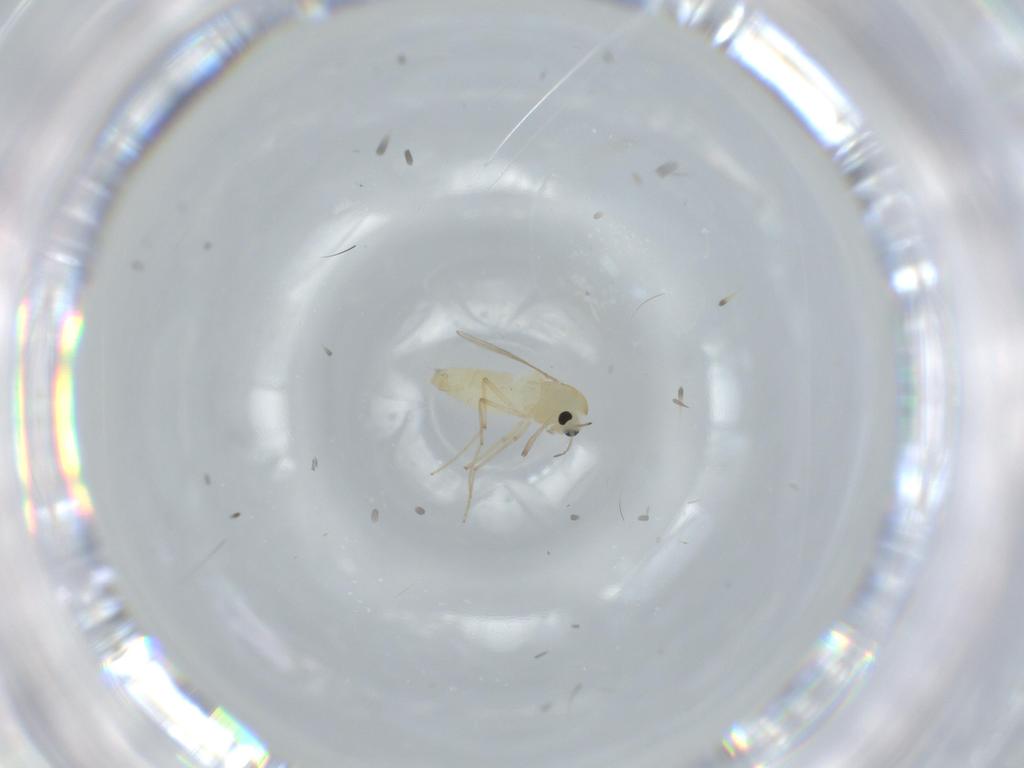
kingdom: Animalia
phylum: Arthropoda
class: Insecta
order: Diptera
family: Chironomidae
